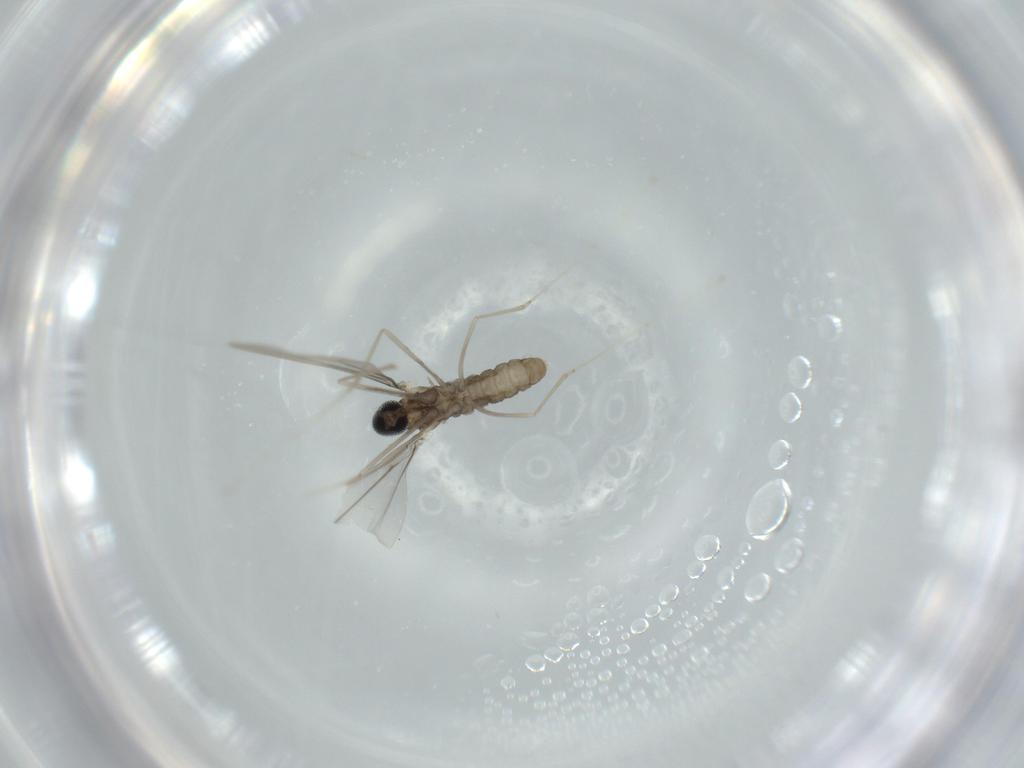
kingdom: Animalia
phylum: Arthropoda
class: Insecta
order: Diptera
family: Cecidomyiidae
